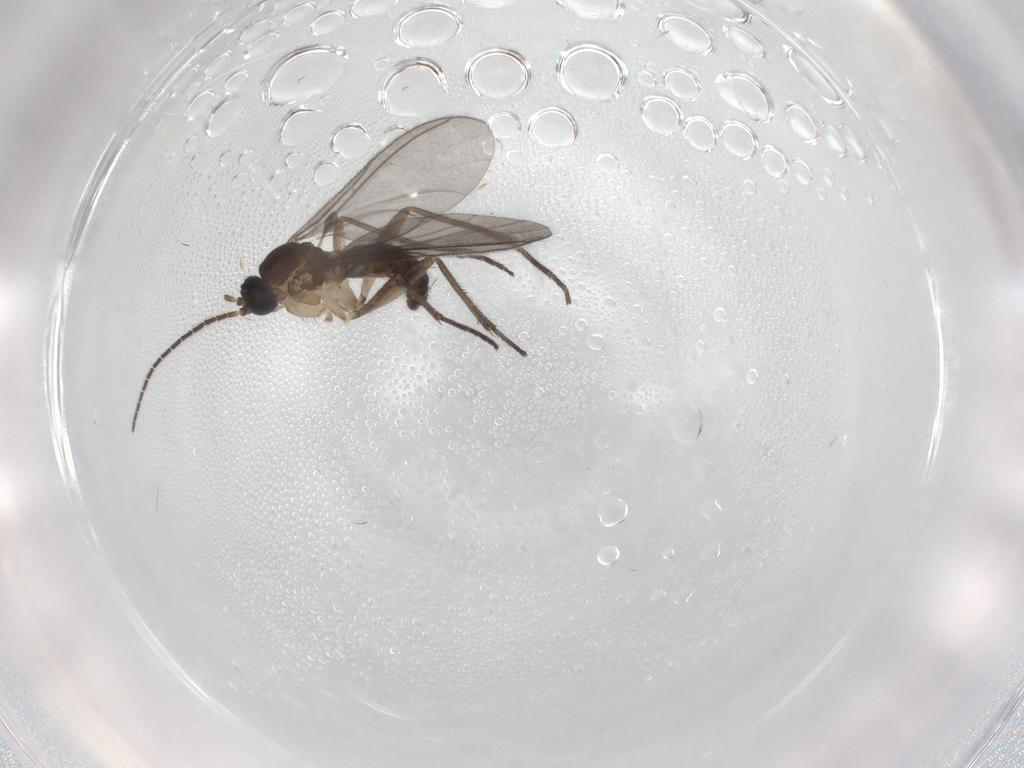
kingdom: Animalia
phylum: Arthropoda
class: Insecta
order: Diptera
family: Sciaridae
